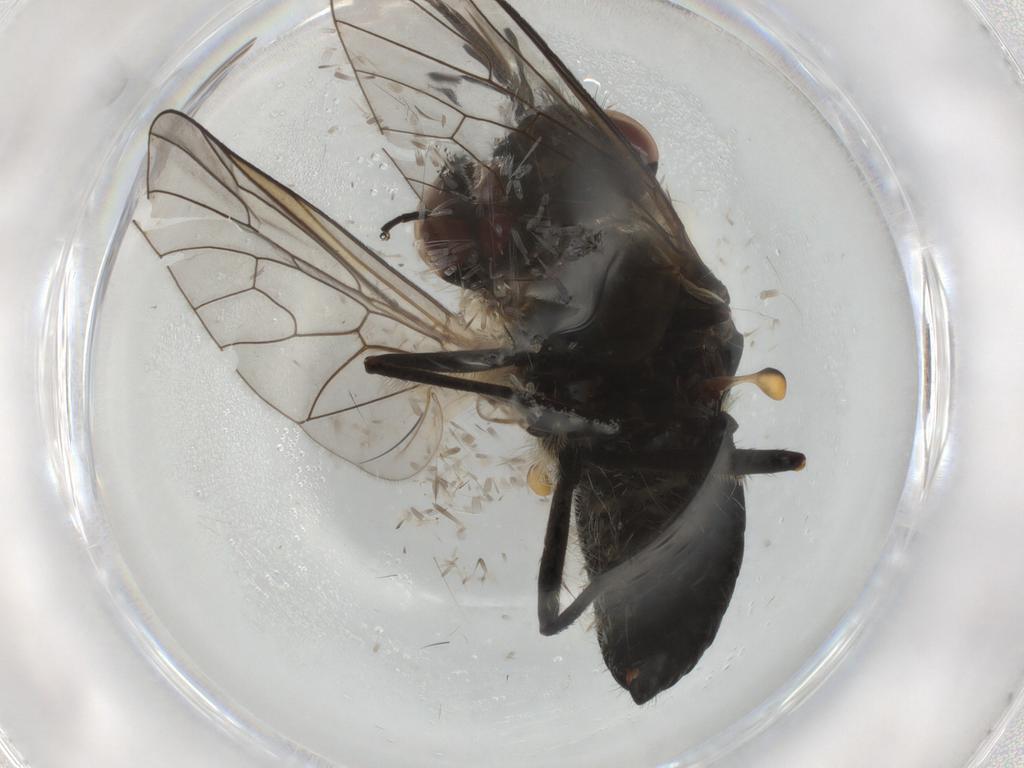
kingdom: Animalia
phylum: Arthropoda
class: Insecta
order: Diptera
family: Bombyliidae
